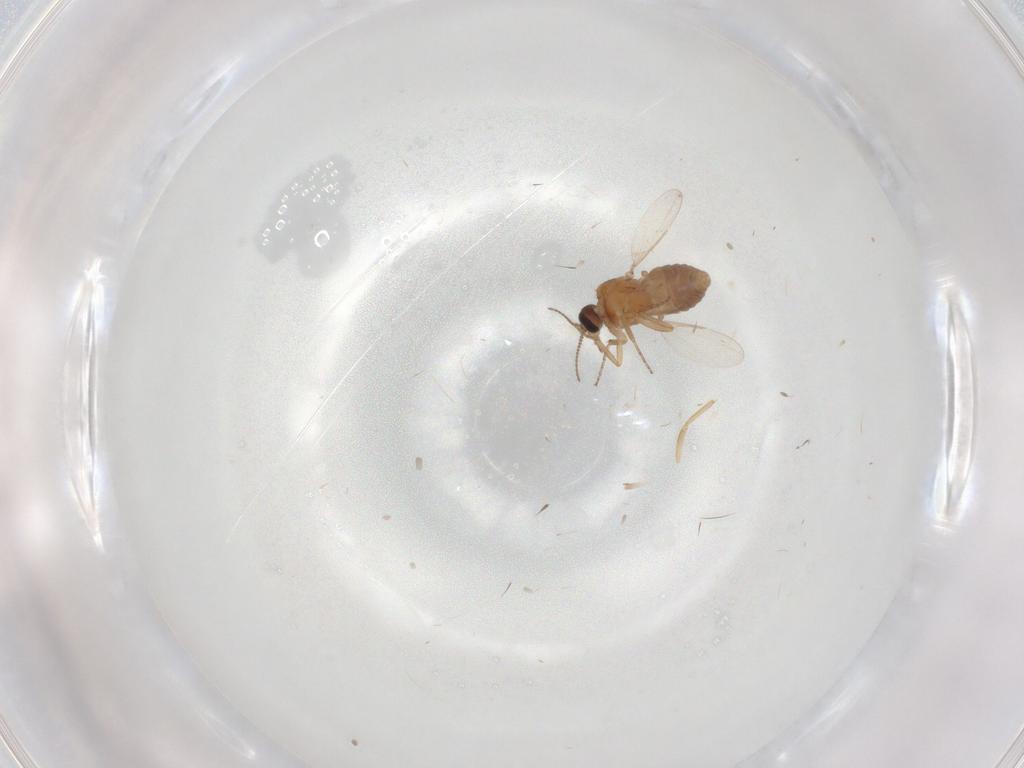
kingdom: Animalia
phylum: Arthropoda
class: Insecta
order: Diptera
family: Ceratopogonidae
